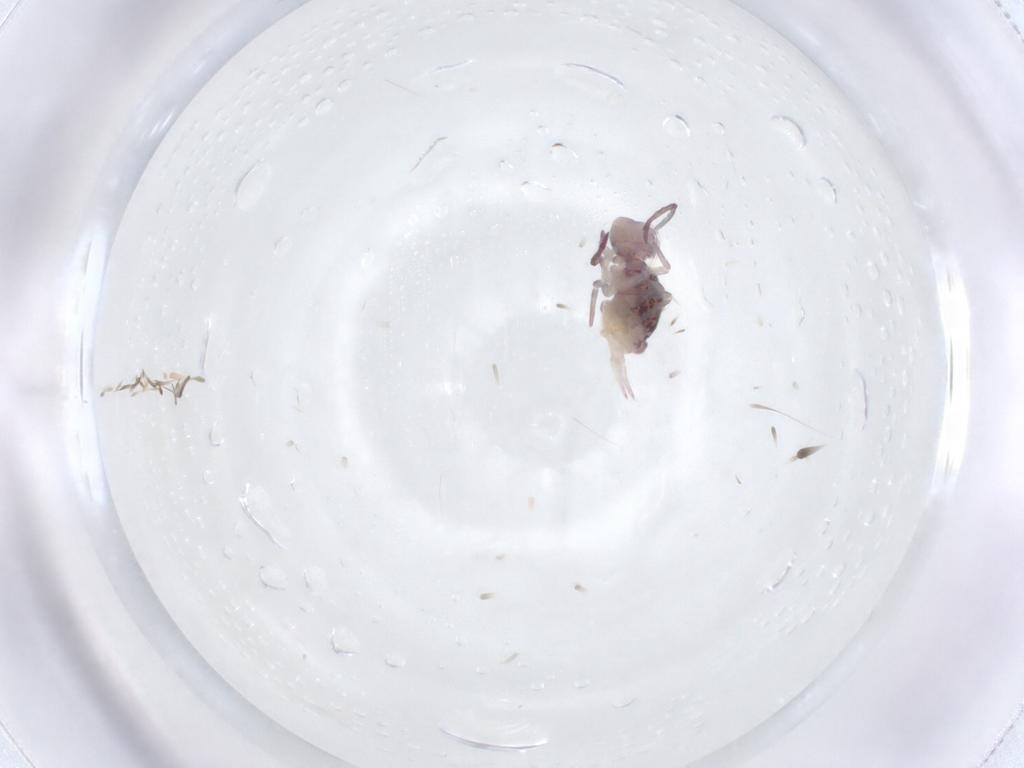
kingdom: Animalia
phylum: Arthropoda
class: Collembola
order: Symphypleona
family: Dicyrtomidae
